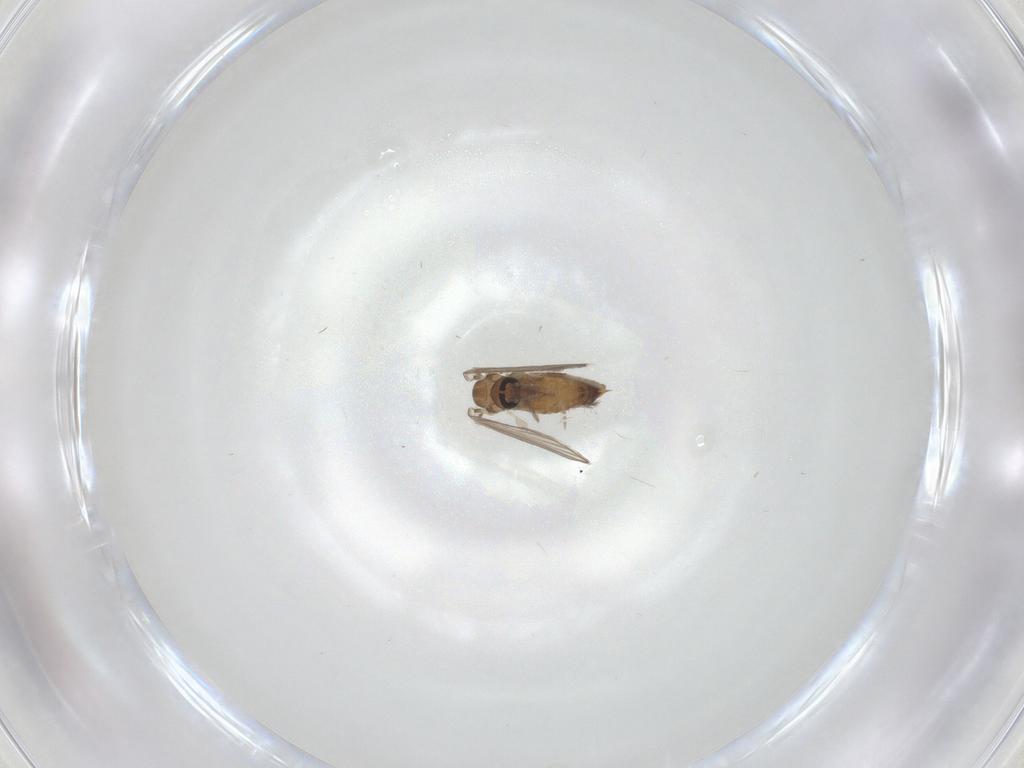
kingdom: Animalia
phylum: Arthropoda
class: Insecta
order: Diptera
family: Psychodidae
